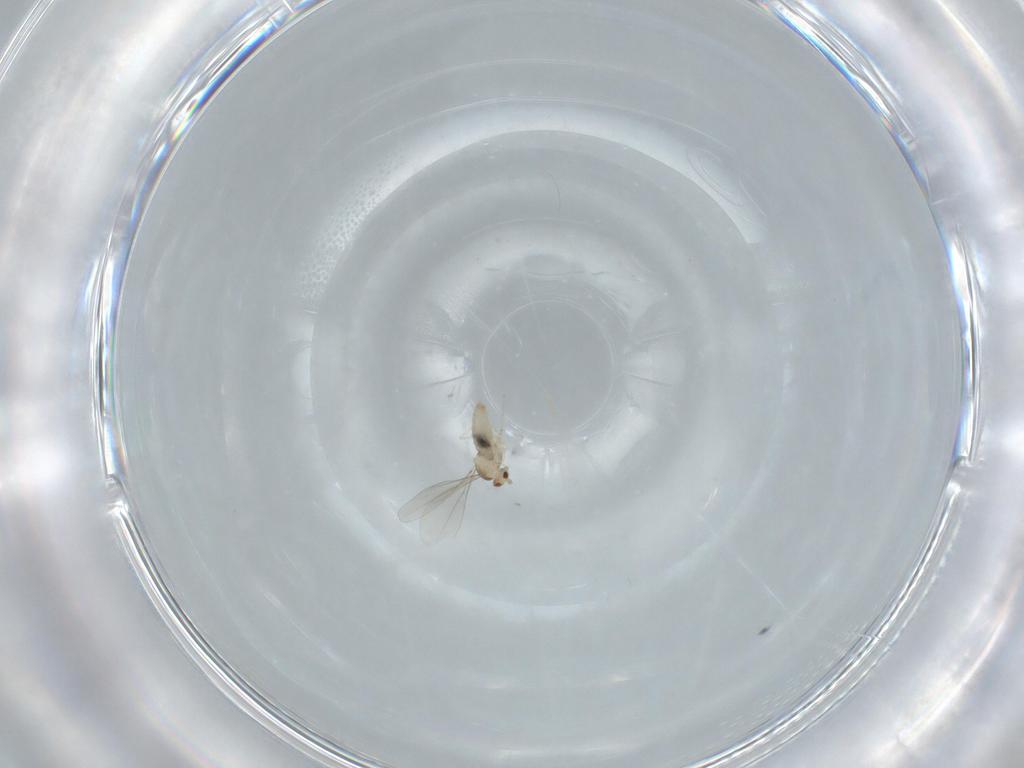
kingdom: Animalia
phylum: Arthropoda
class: Insecta
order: Diptera
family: Cecidomyiidae
